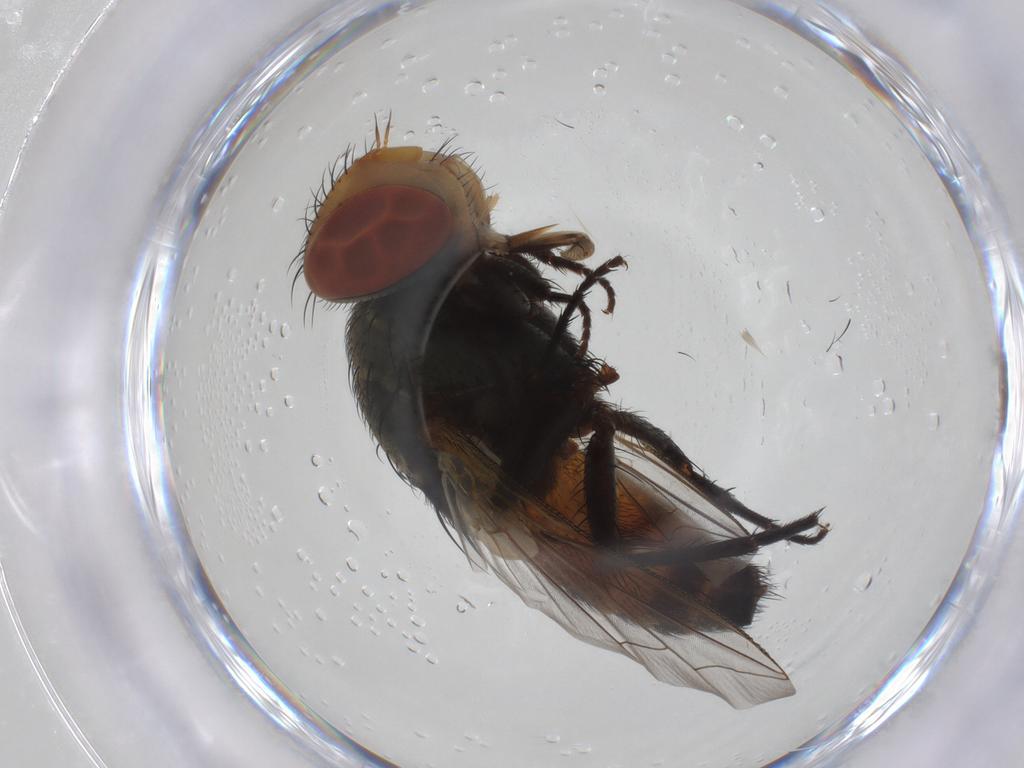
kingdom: Animalia
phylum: Arthropoda
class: Insecta
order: Diptera
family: Sarcophagidae
